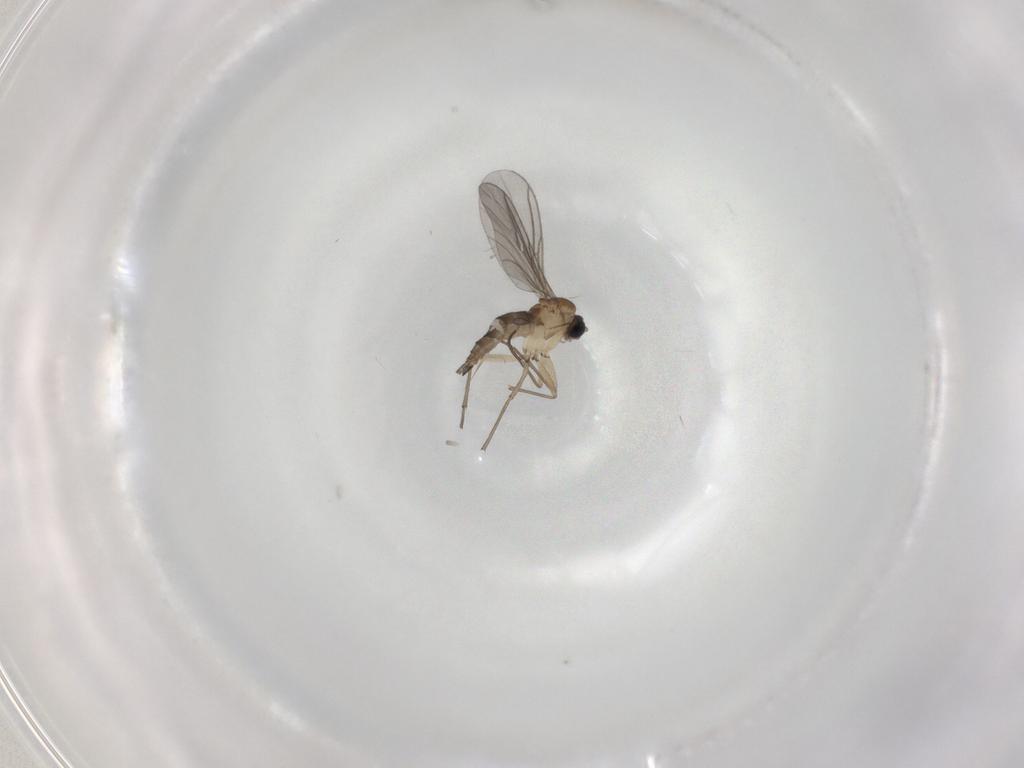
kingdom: Animalia
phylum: Arthropoda
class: Insecta
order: Diptera
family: Sciaridae
